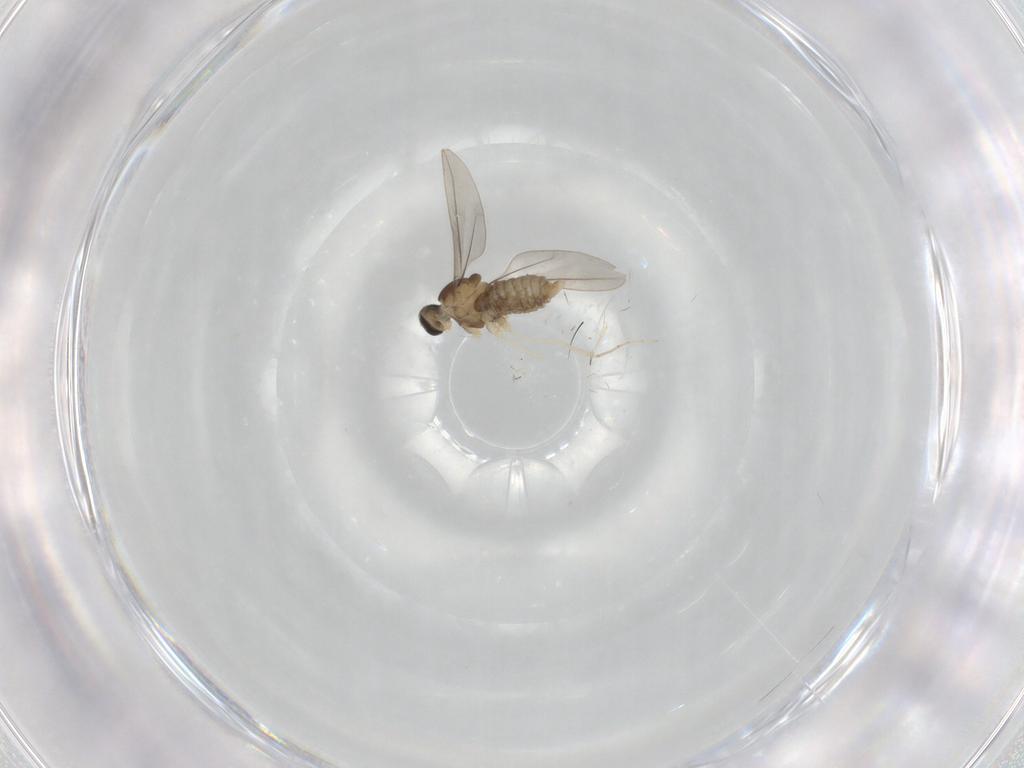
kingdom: Animalia
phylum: Arthropoda
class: Insecta
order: Diptera
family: Cecidomyiidae
